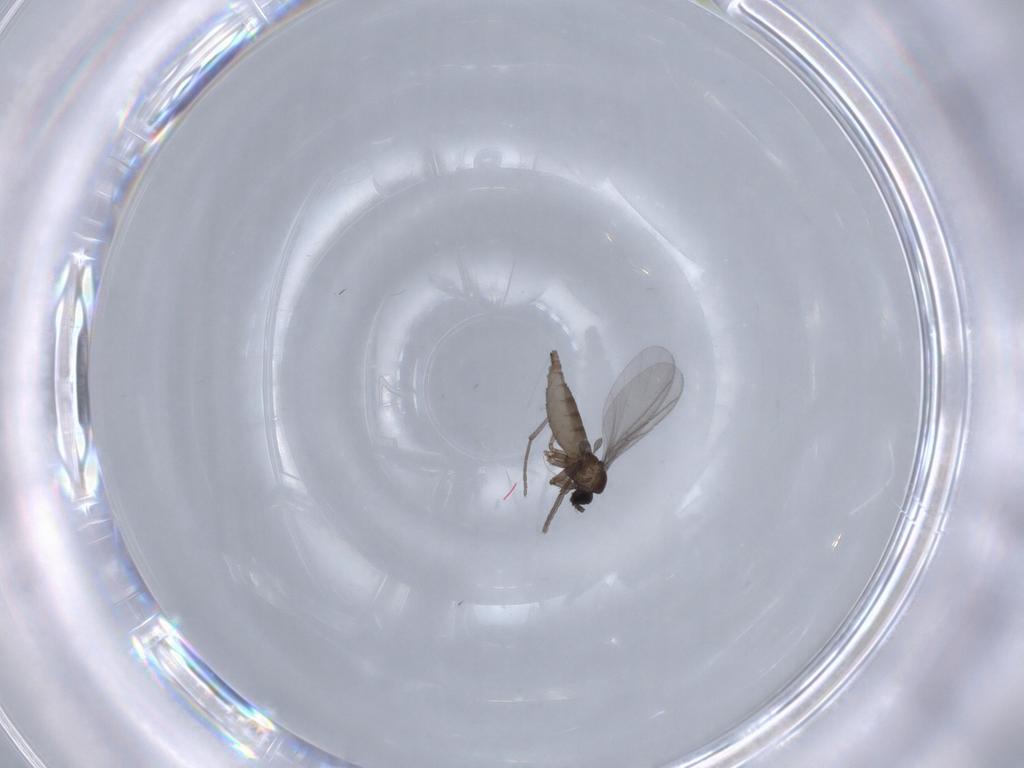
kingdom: Animalia
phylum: Arthropoda
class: Insecta
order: Diptera
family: Sciaridae
